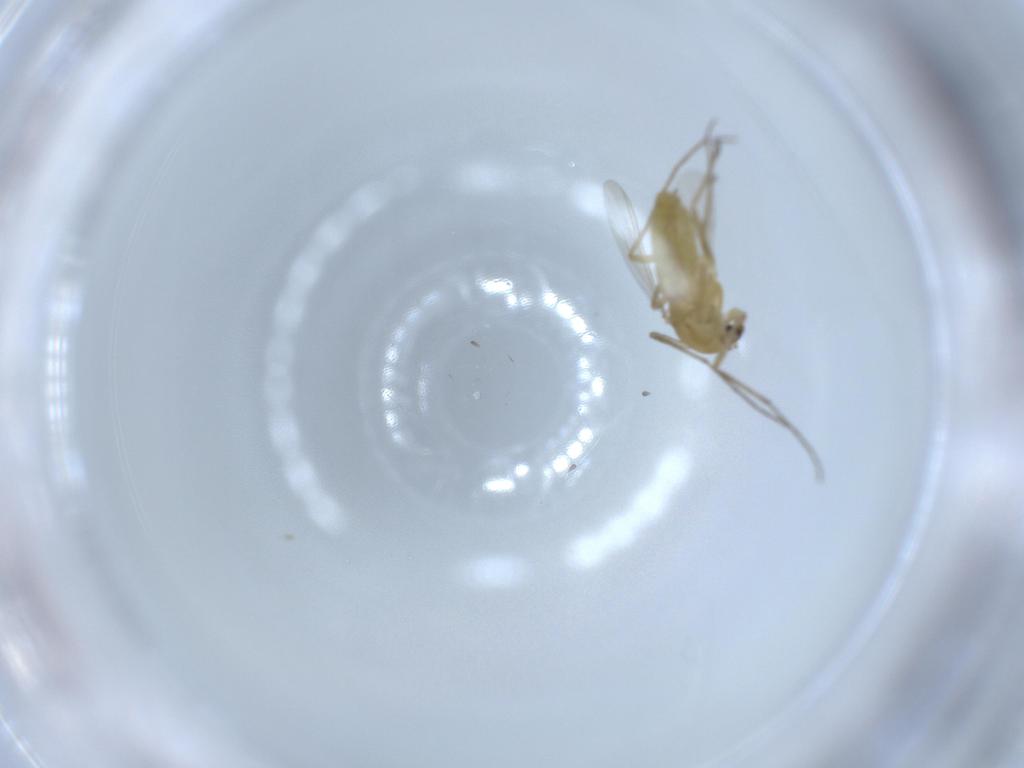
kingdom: Animalia
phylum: Arthropoda
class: Insecta
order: Diptera
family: Chironomidae
